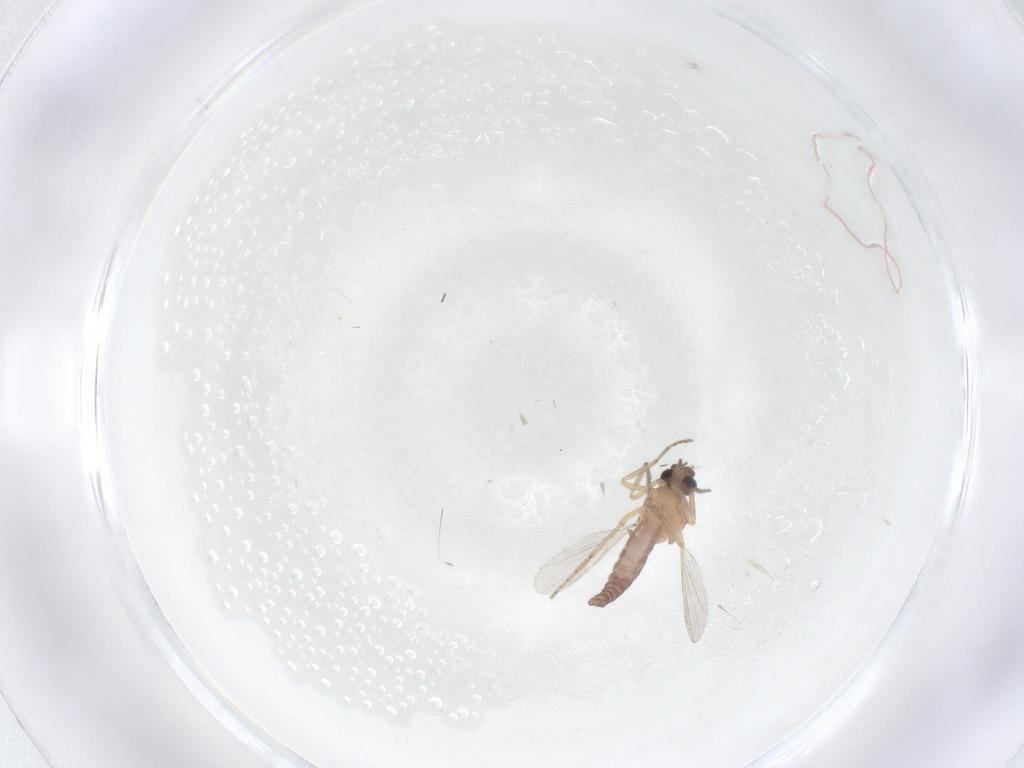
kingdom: Animalia
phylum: Arthropoda
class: Insecta
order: Diptera
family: Ceratopogonidae
